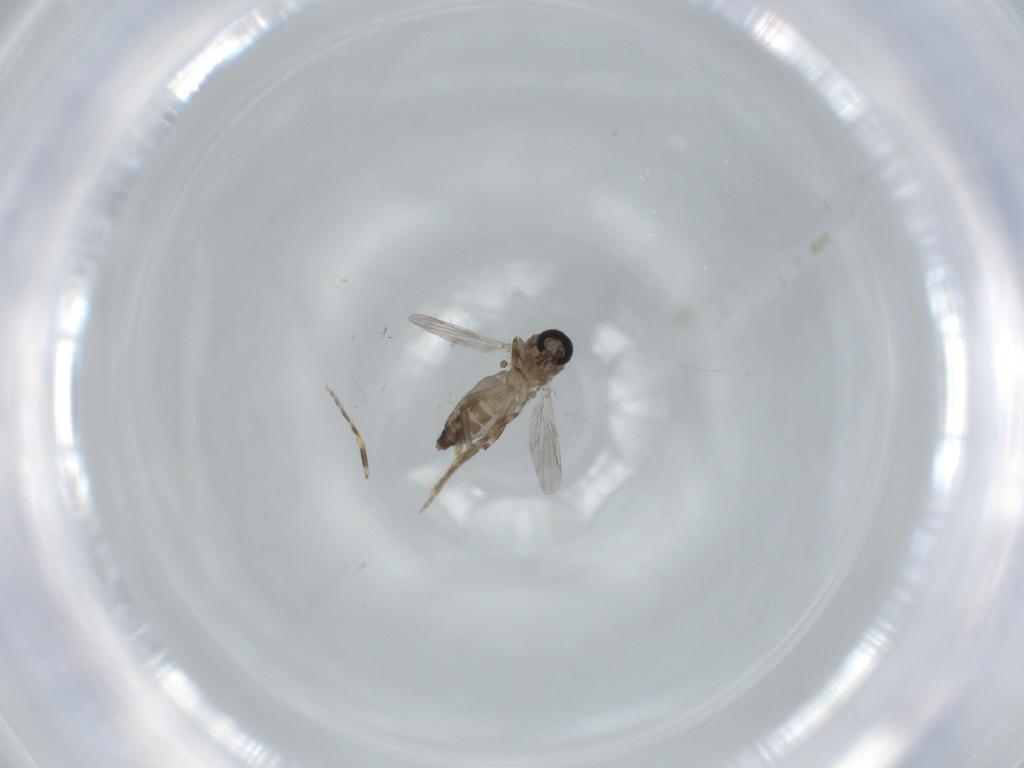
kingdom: Animalia
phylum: Arthropoda
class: Insecta
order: Diptera
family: Ceratopogonidae
